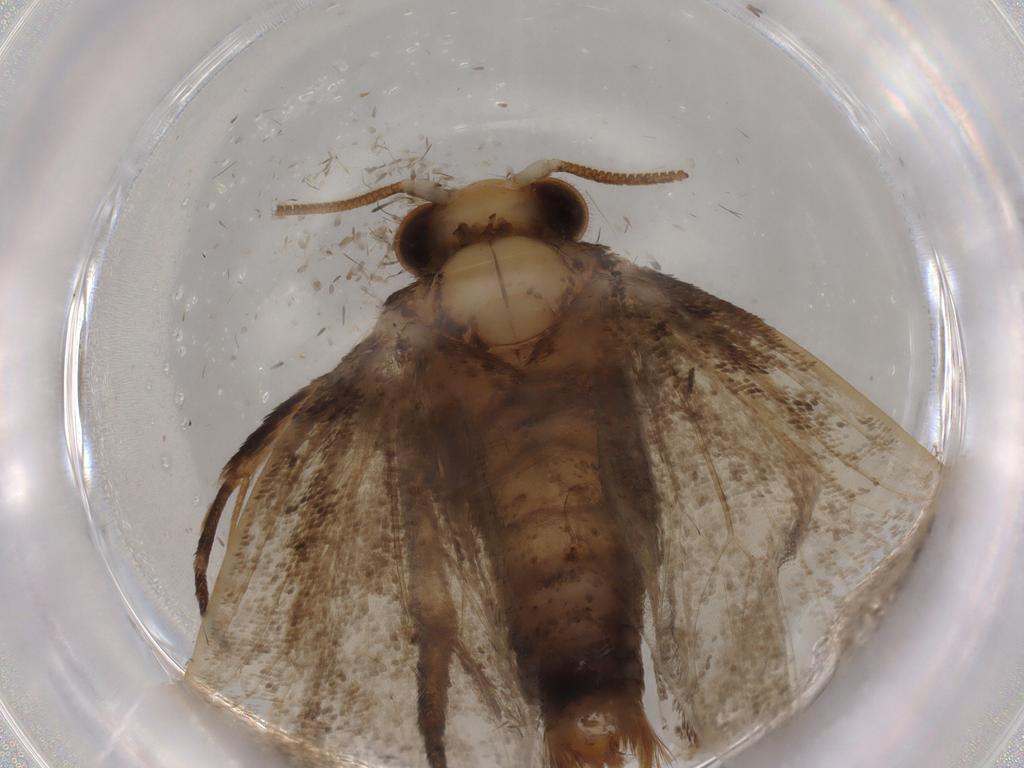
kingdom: Animalia
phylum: Arthropoda
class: Insecta
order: Lepidoptera
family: Tineidae
